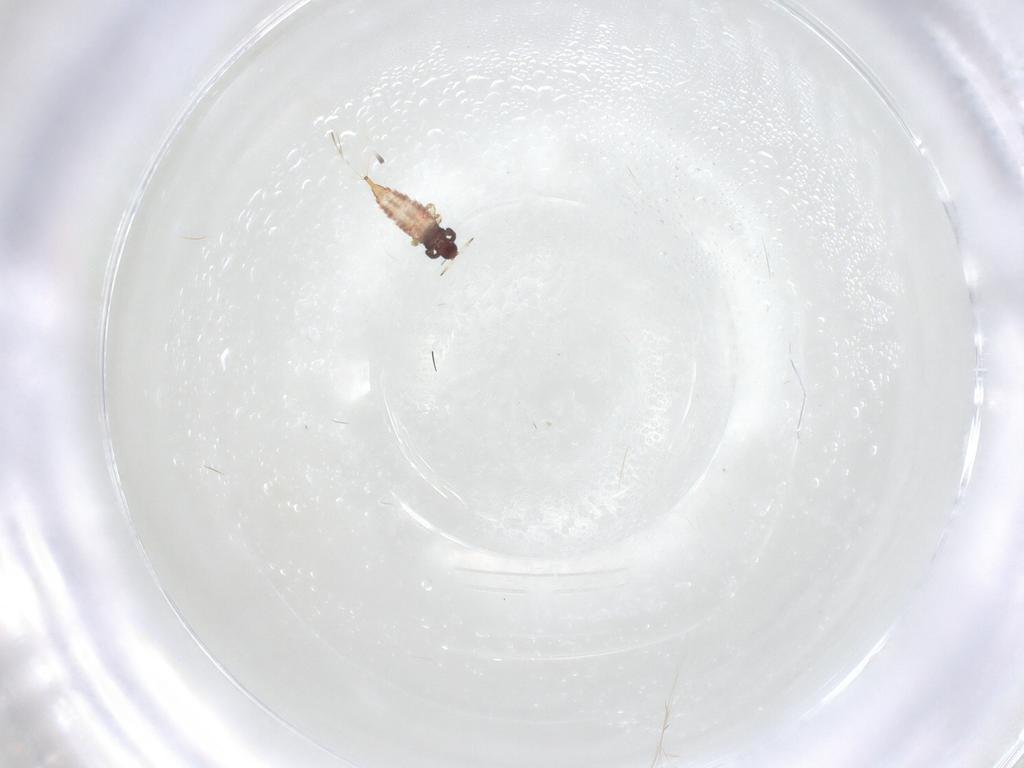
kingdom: Animalia
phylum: Arthropoda
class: Insecta
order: Thysanoptera
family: Phlaeothripidae
